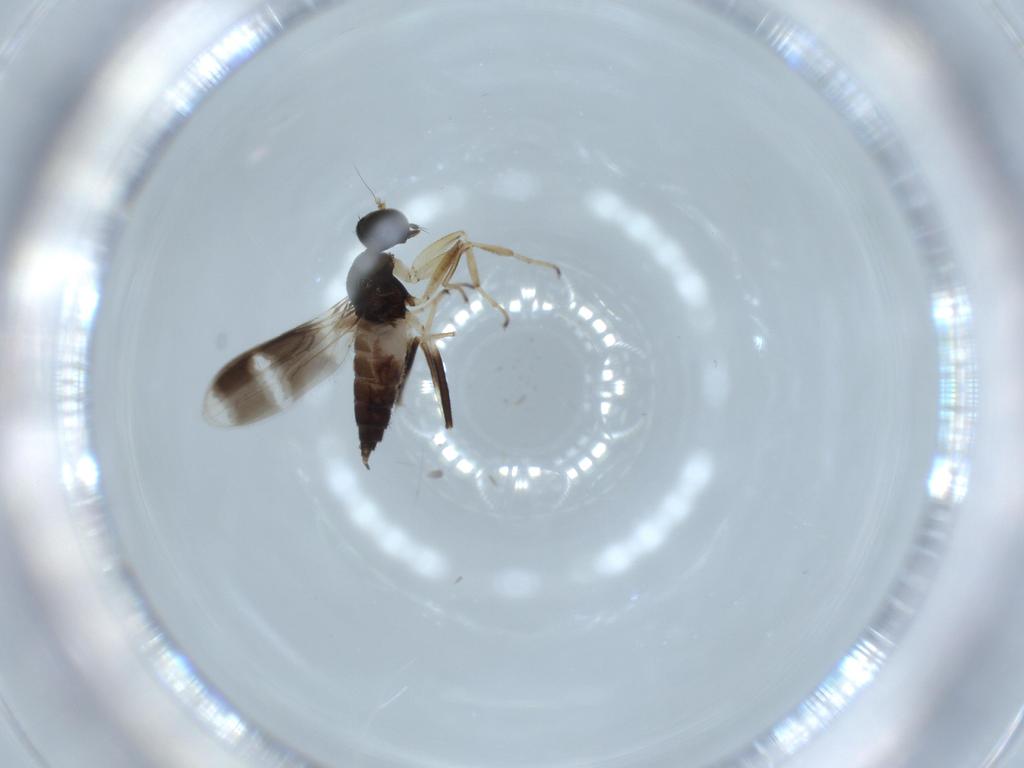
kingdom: Animalia
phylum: Arthropoda
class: Insecta
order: Diptera
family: Hybotidae
